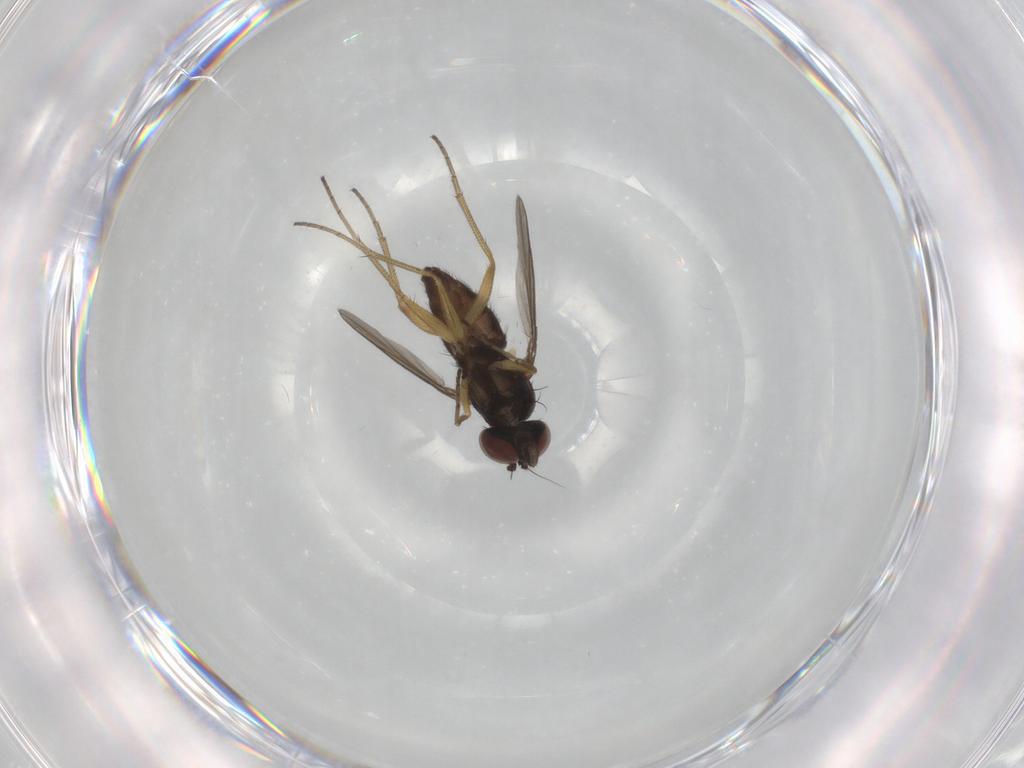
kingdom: Animalia
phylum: Arthropoda
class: Insecta
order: Diptera
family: Dolichopodidae
